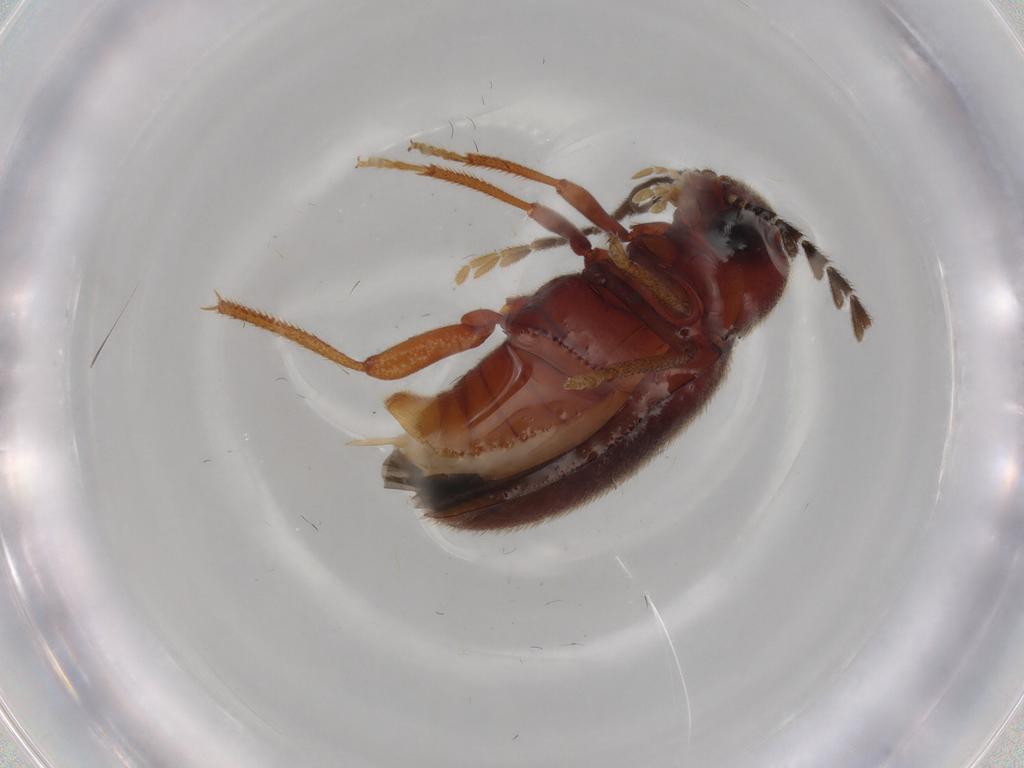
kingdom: Animalia
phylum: Arthropoda
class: Insecta
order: Coleoptera
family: Ptilodactylidae
